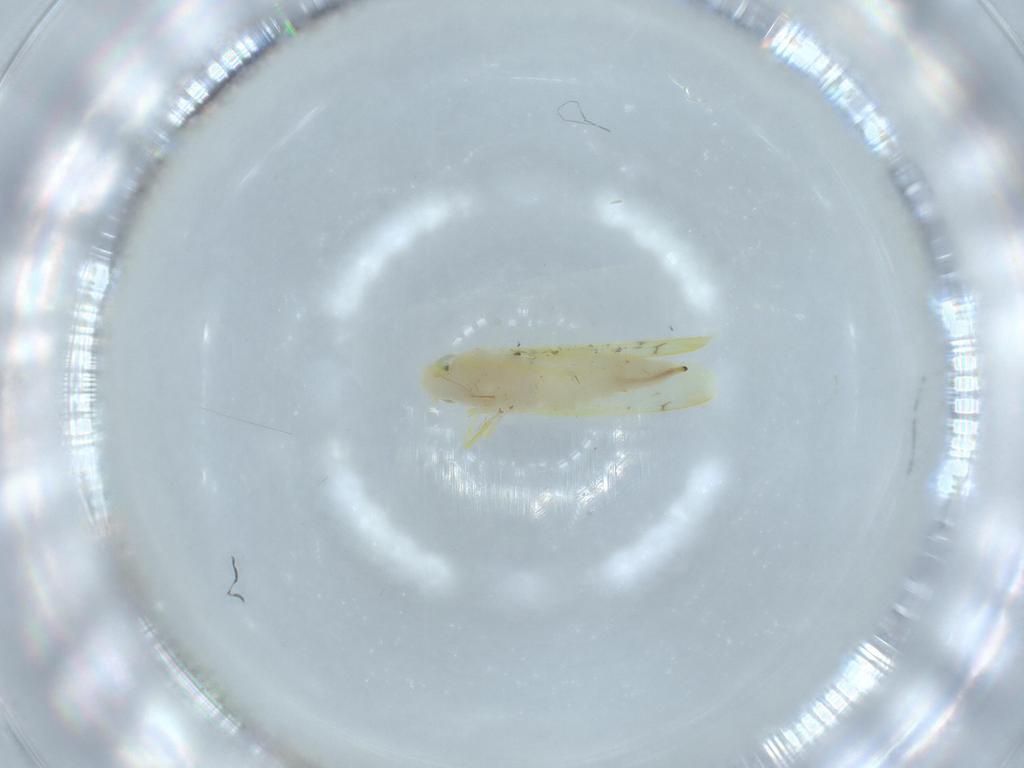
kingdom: Animalia
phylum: Arthropoda
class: Insecta
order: Hemiptera
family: Cicadellidae
